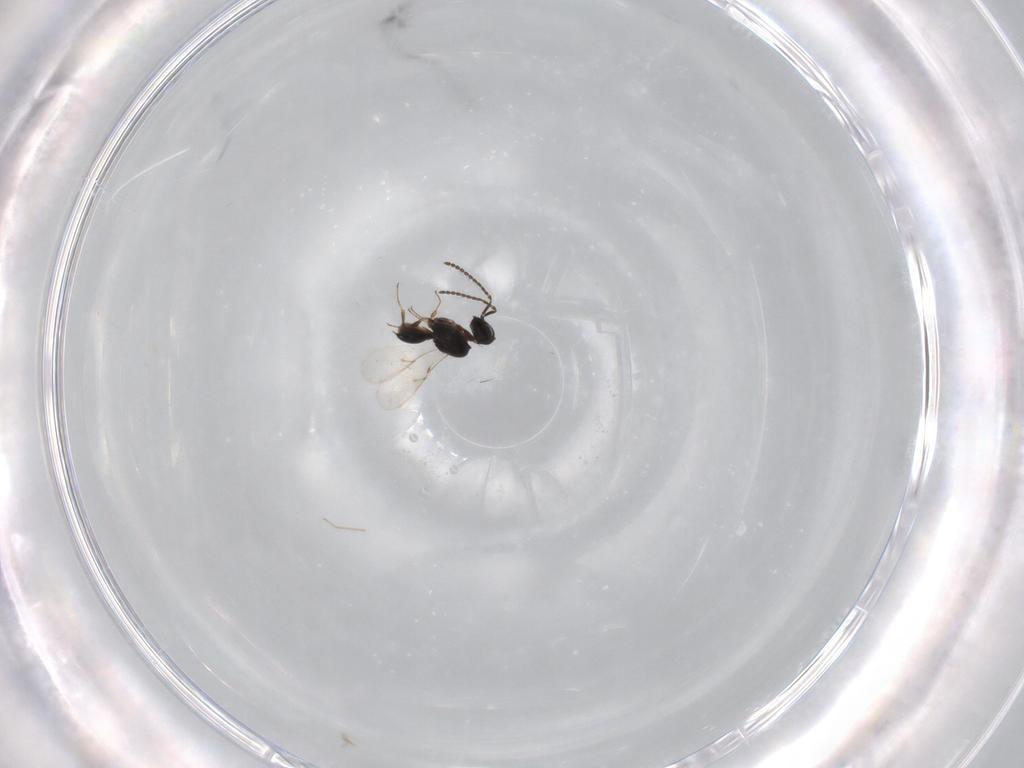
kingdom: Animalia
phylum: Arthropoda
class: Insecta
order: Hymenoptera
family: Scelionidae
